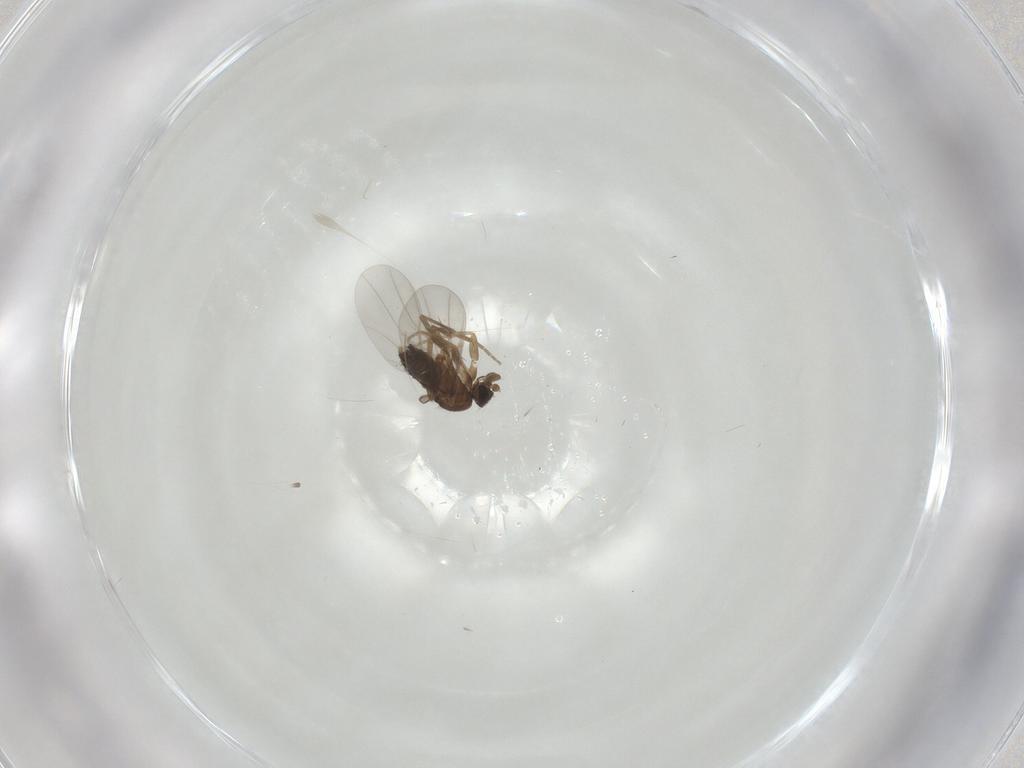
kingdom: Animalia
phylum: Arthropoda
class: Insecta
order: Diptera
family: Phoridae
